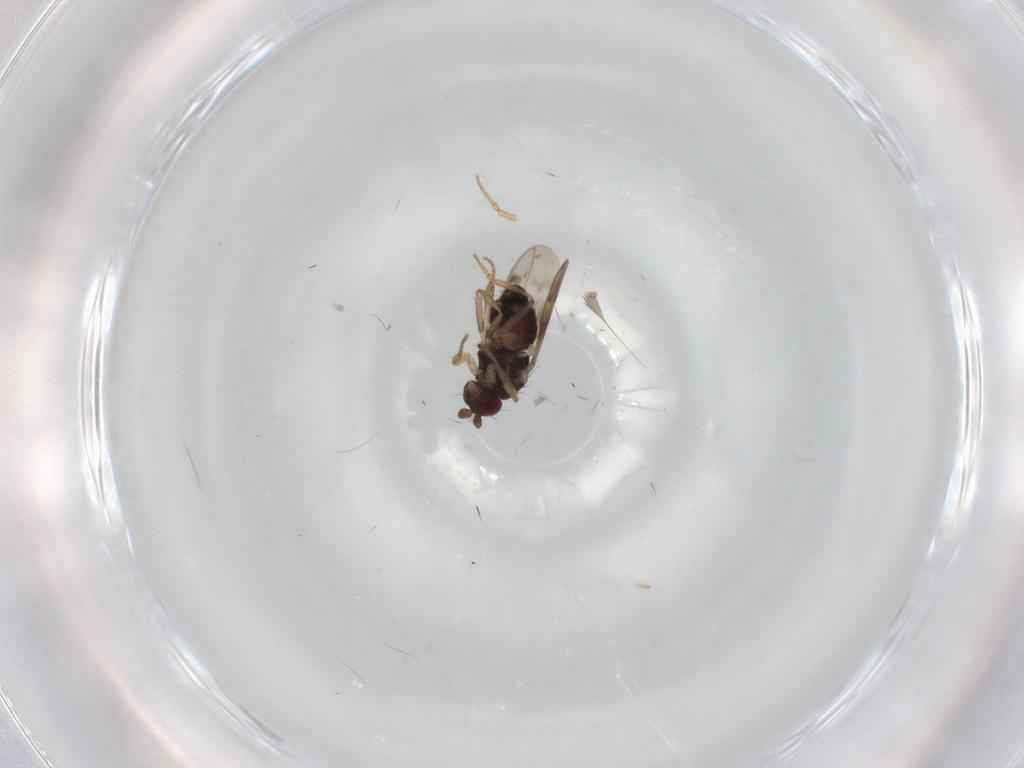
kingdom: Animalia
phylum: Arthropoda
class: Insecta
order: Diptera
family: Sphaeroceridae
